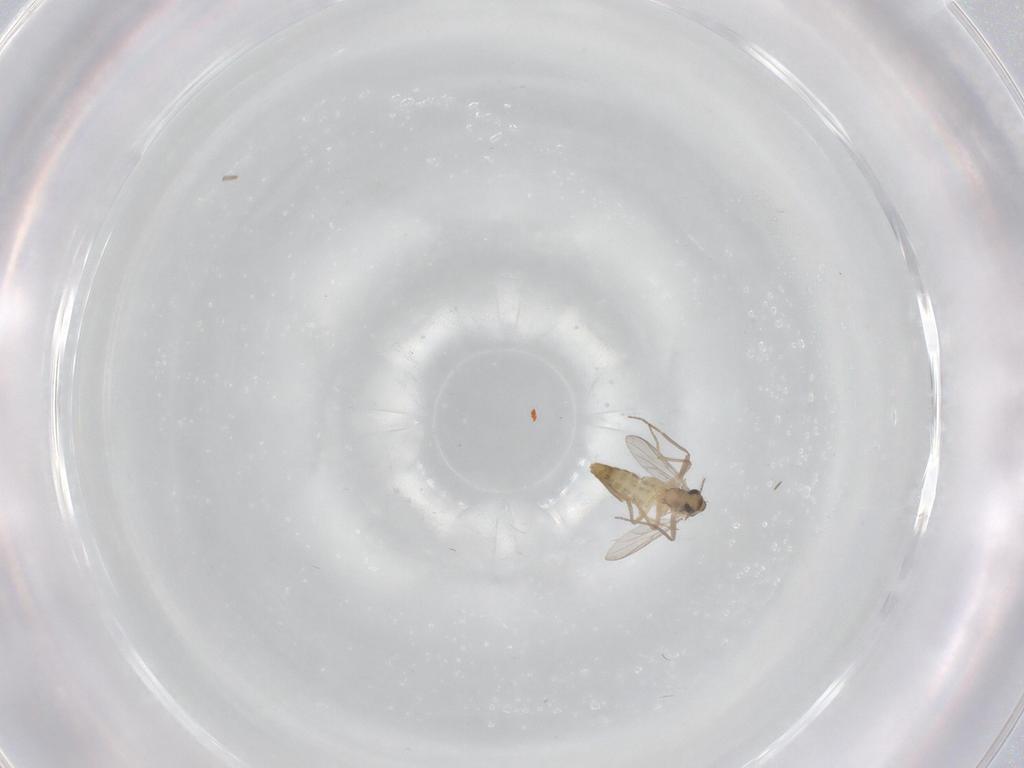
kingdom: Animalia
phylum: Arthropoda
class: Insecta
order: Diptera
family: Chironomidae
